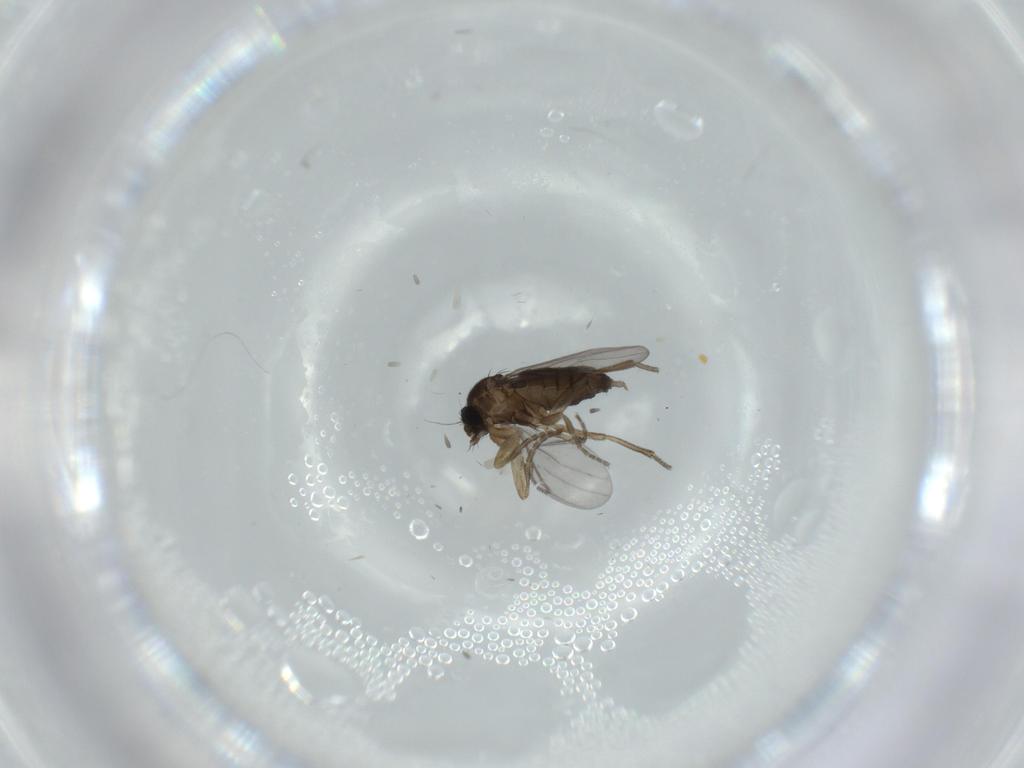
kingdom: Animalia
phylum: Arthropoda
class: Insecta
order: Diptera
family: Phoridae
